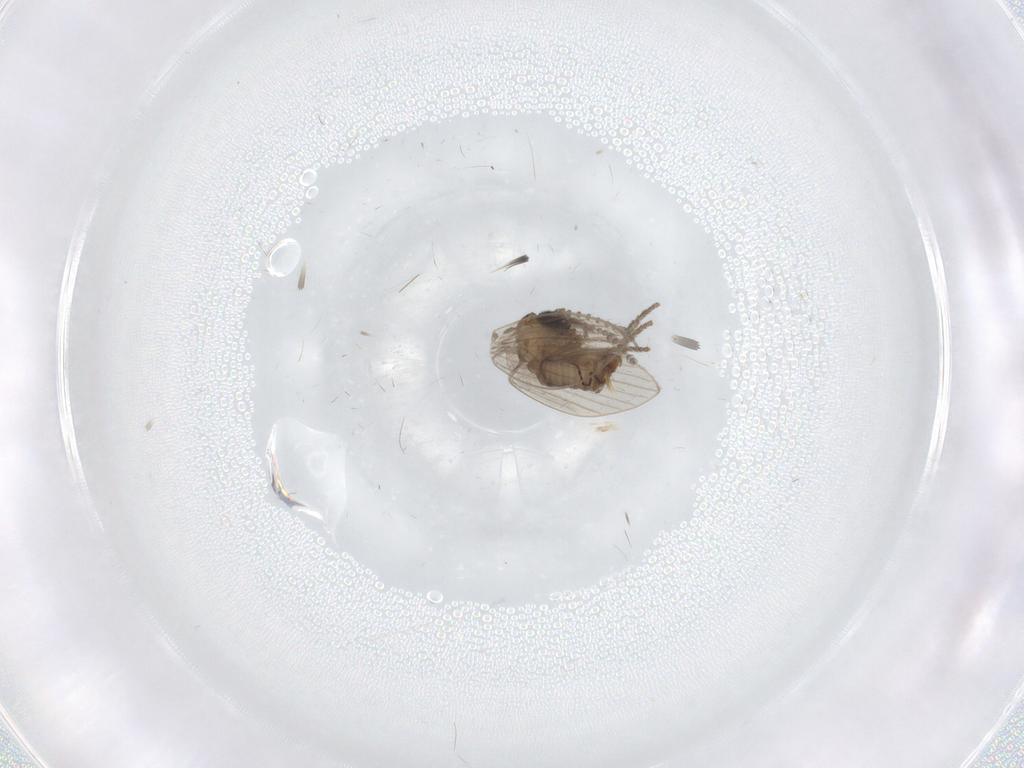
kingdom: Animalia
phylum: Arthropoda
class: Insecta
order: Diptera
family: Psychodidae
